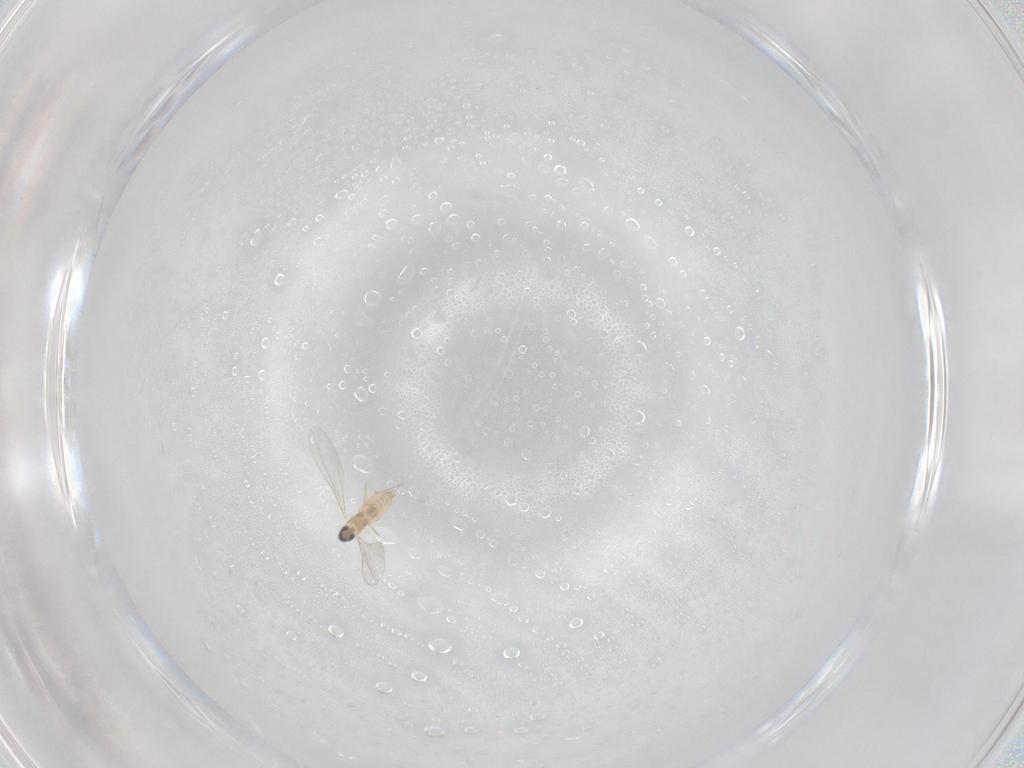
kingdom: Animalia
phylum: Arthropoda
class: Insecta
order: Diptera
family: Phoridae
